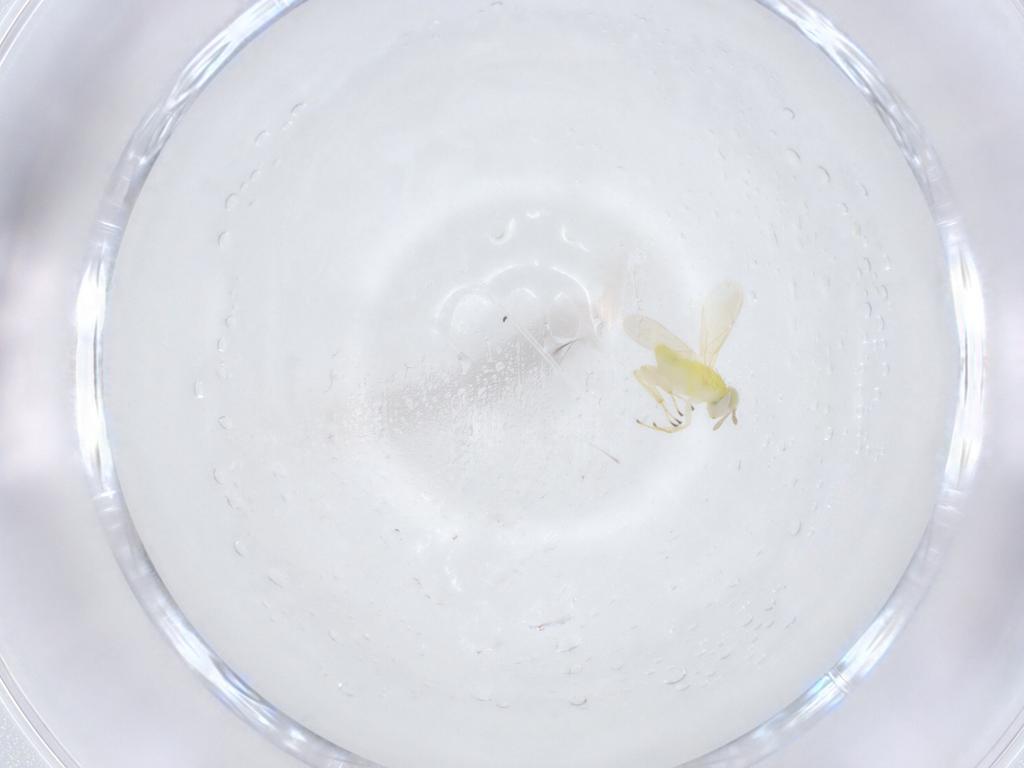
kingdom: Animalia
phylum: Arthropoda
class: Insecta
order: Hymenoptera
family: Aphelinidae
